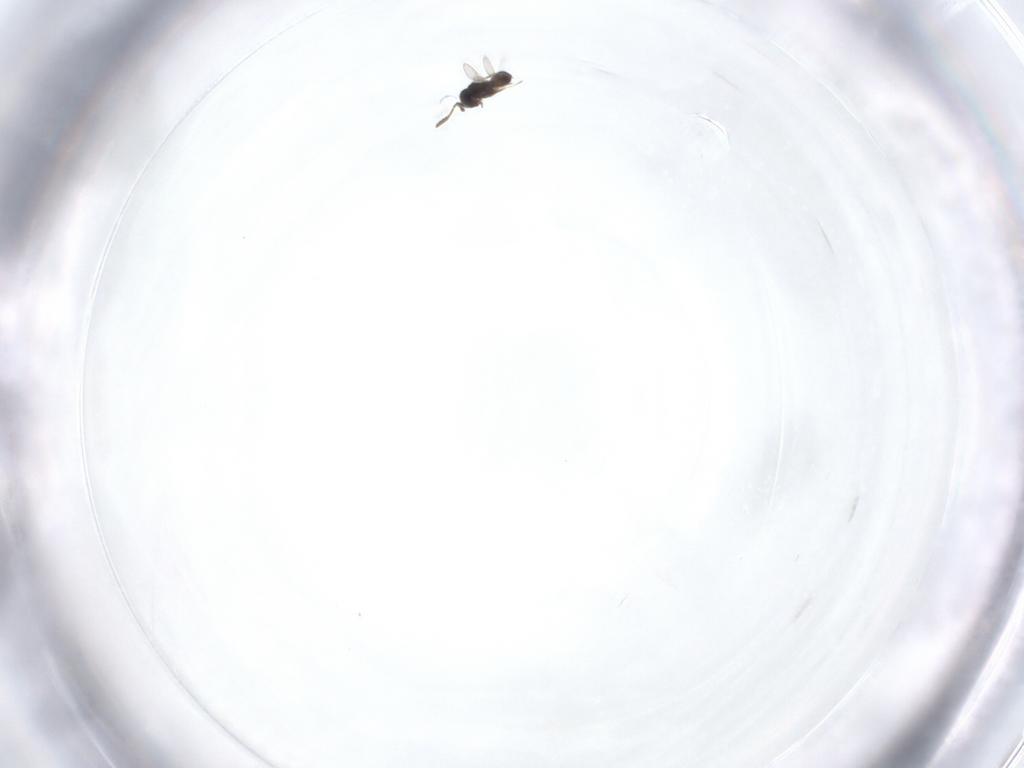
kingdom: Animalia
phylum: Arthropoda
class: Insecta
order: Hymenoptera
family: Scelionidae
